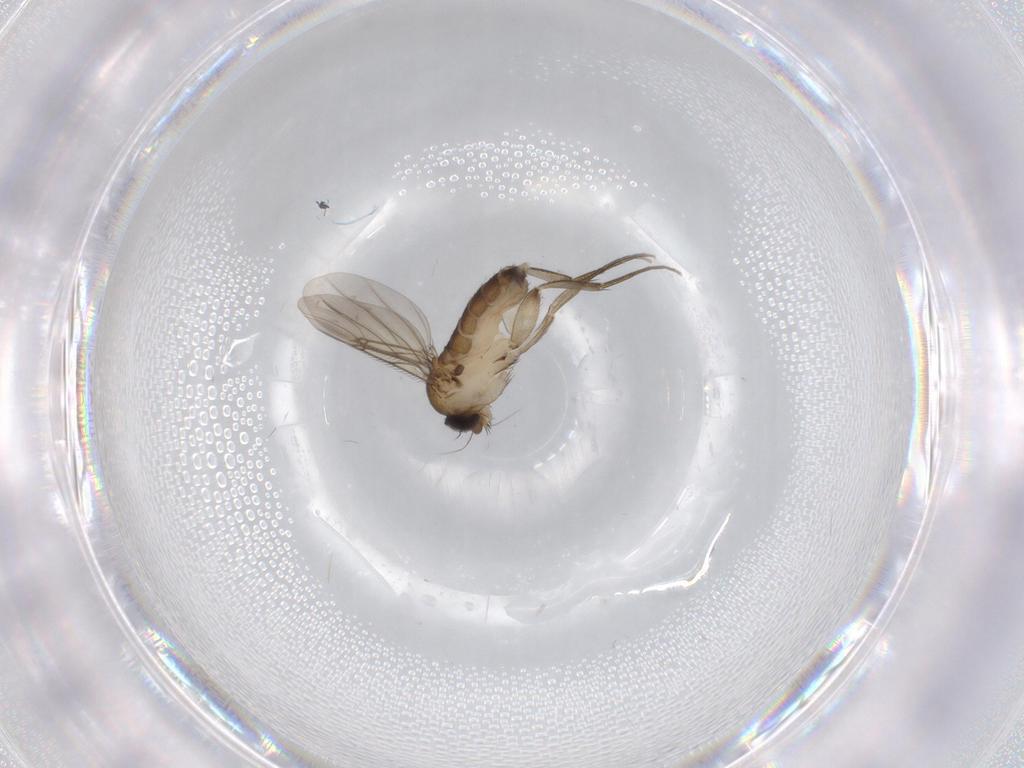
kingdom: Animalia
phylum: Arthropoda
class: Insecta
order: Diptera
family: Phoridae
